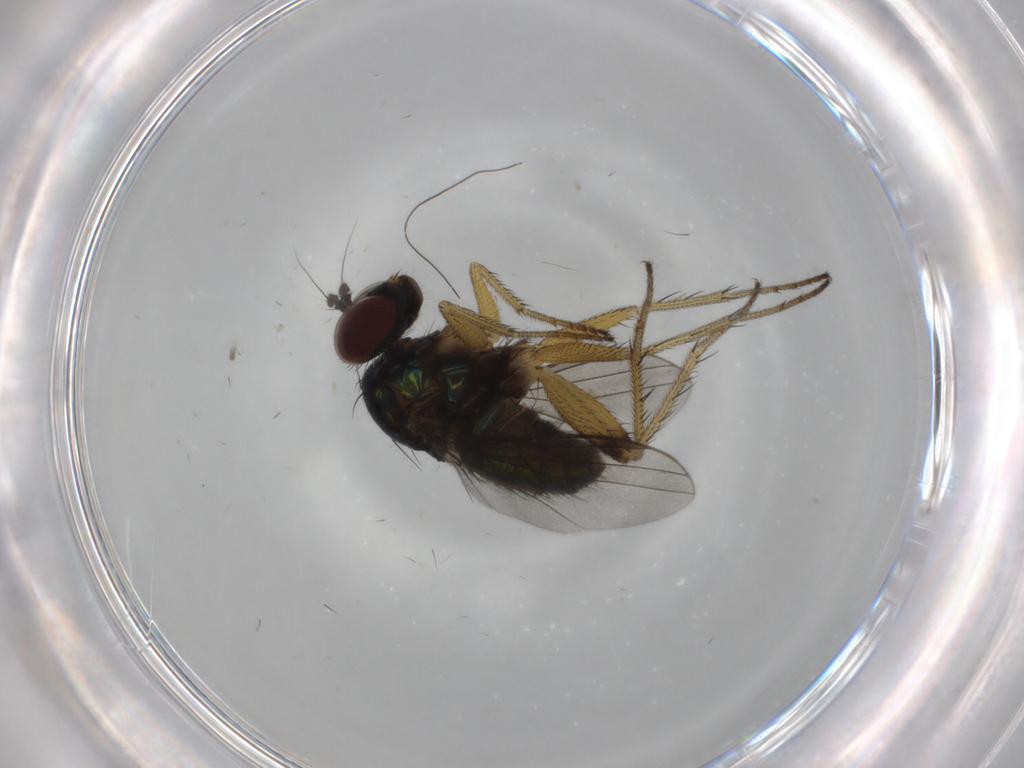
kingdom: Animalia
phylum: Arthropoda
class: Insecta
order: Diptera
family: Dolichopodidae
